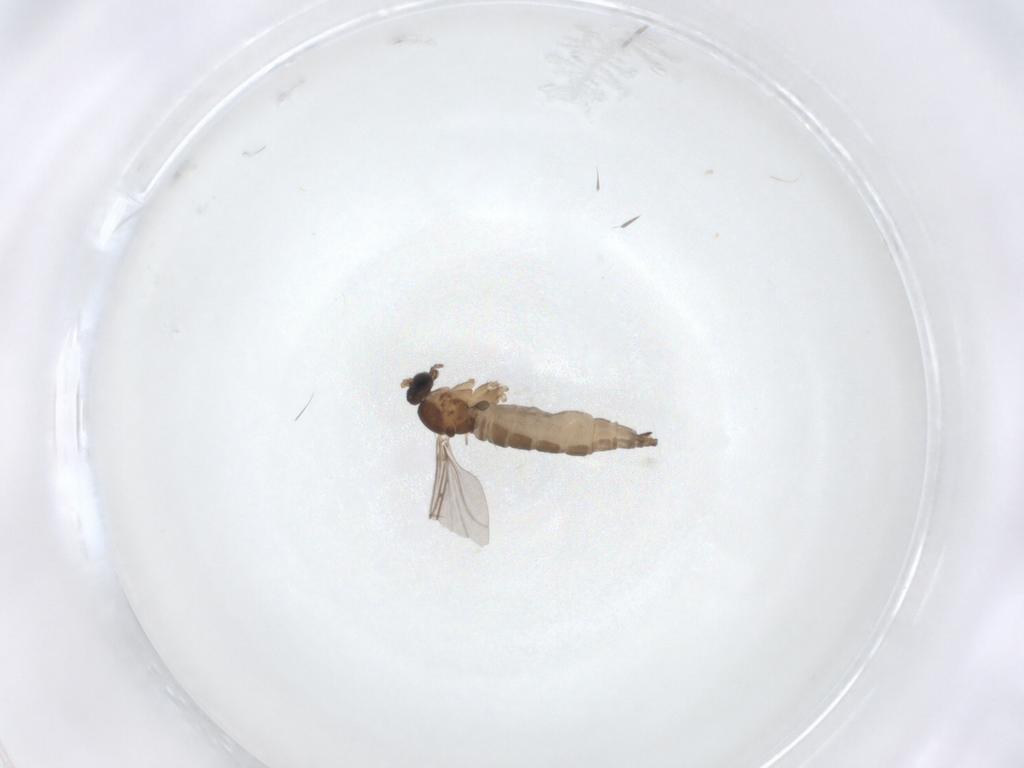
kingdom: Animalia
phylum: Arthropoda
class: Insecta
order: Diptera
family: Sciaridae
